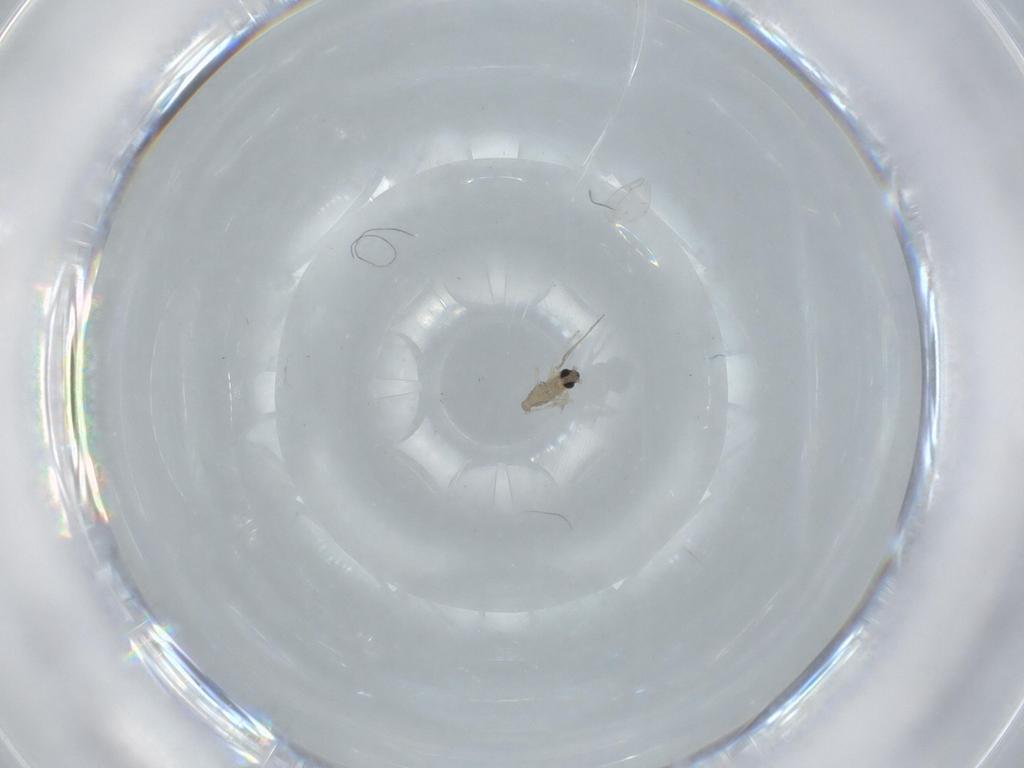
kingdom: Animalia
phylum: Arthropoda
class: Insecta
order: Diptera
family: Cecidomyiidae
